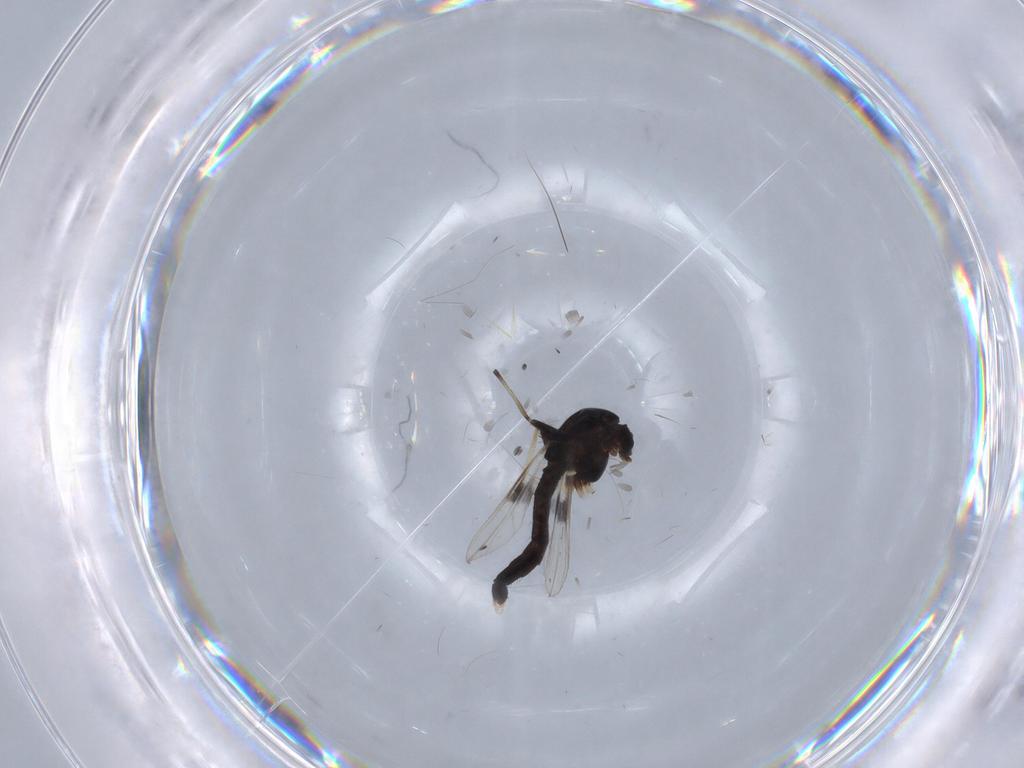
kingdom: Animalia
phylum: Arthropoda
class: Insecta
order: Diptera
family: Chironomidae
